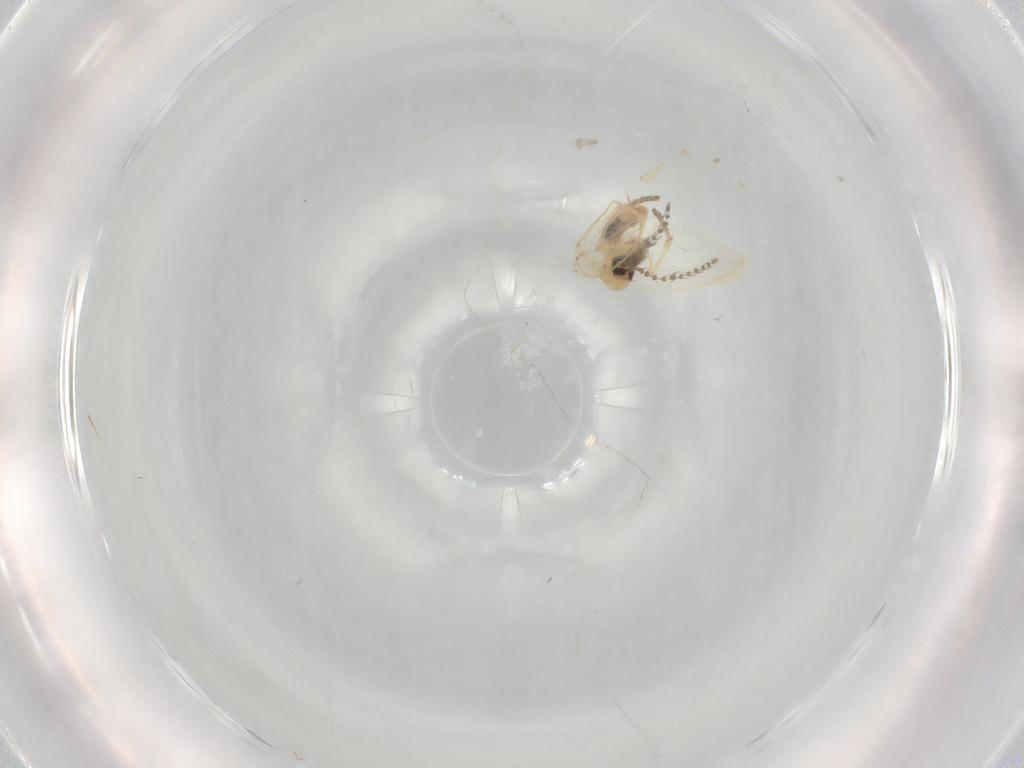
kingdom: Animalia
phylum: Arthropoda
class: Insecta
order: Diptera
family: Psychodidae
